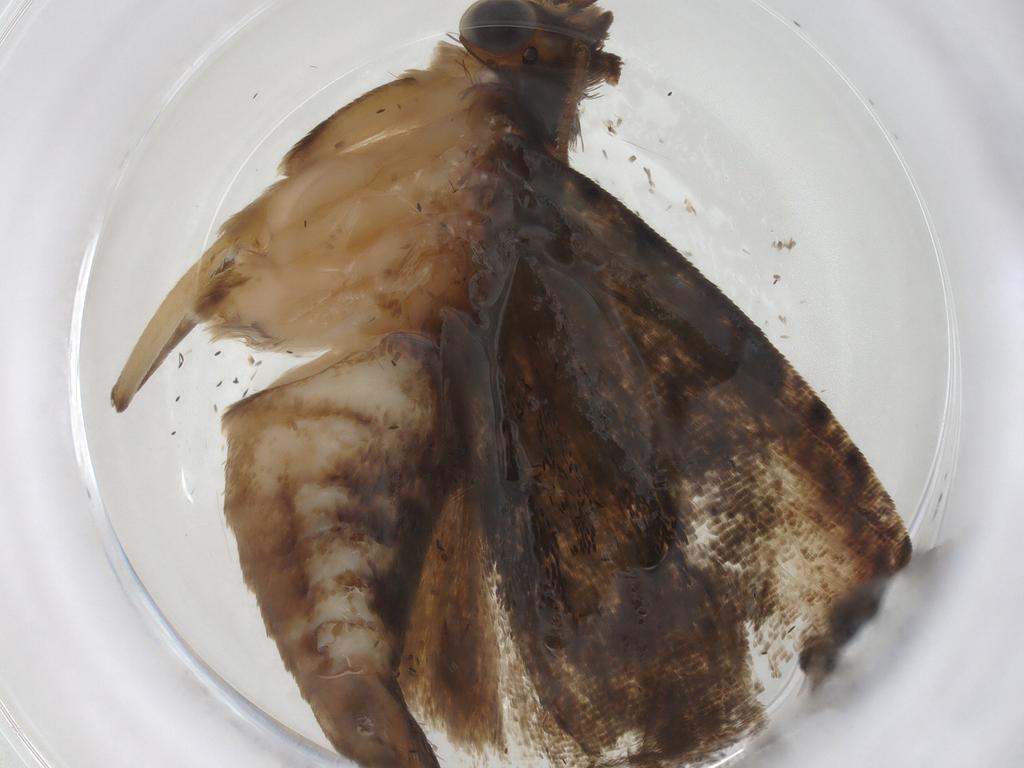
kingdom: Animalia
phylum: Arthropoda
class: Insecta
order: Lepidoptera
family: Tortricidae
